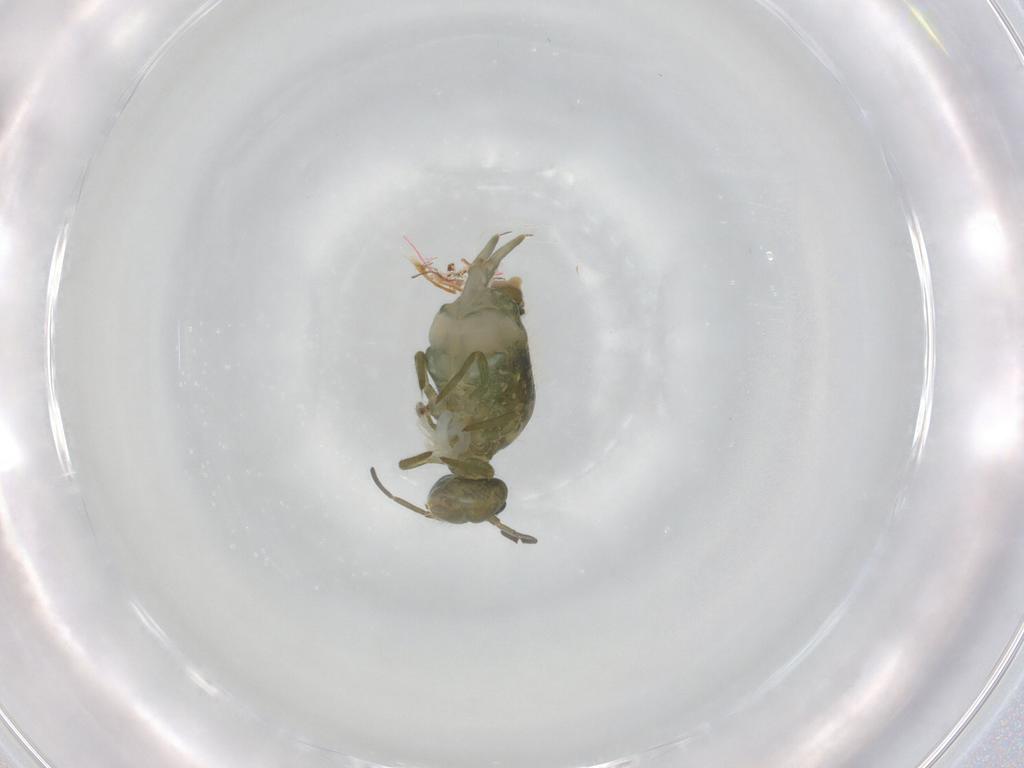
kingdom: Animalia
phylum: Arthropoda
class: Collembola
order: Symphypleona
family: Sminthuridae
